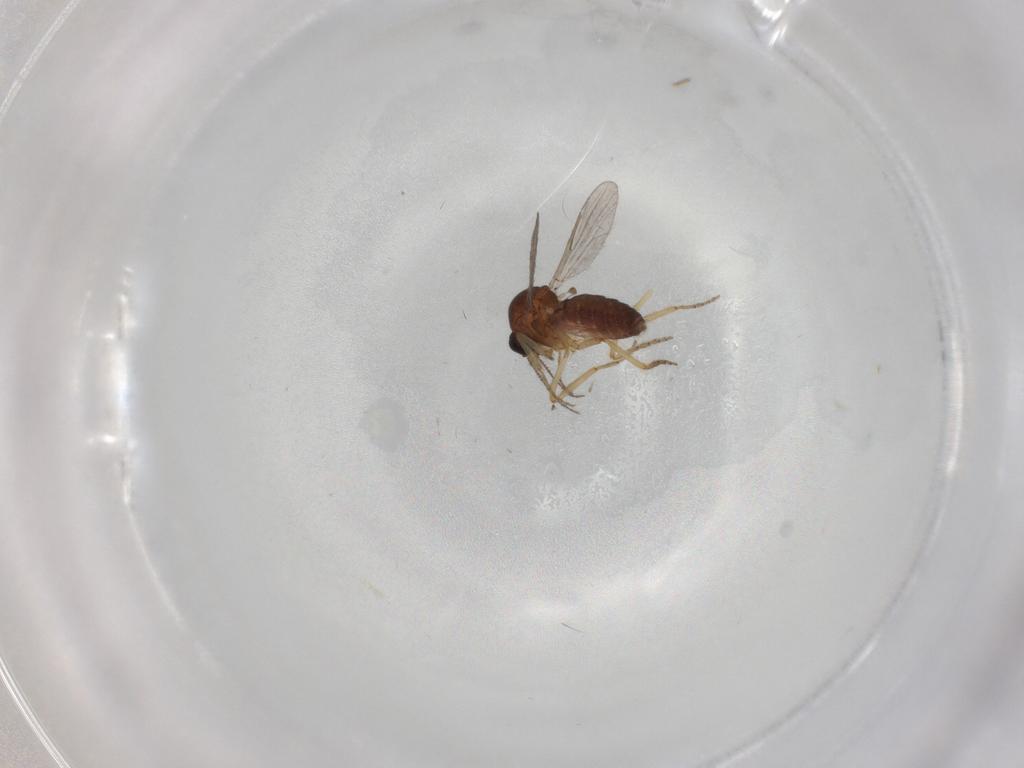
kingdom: Animalia
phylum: Arthropoda
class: Insecta
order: Diptera
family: Ceratopogonidae
